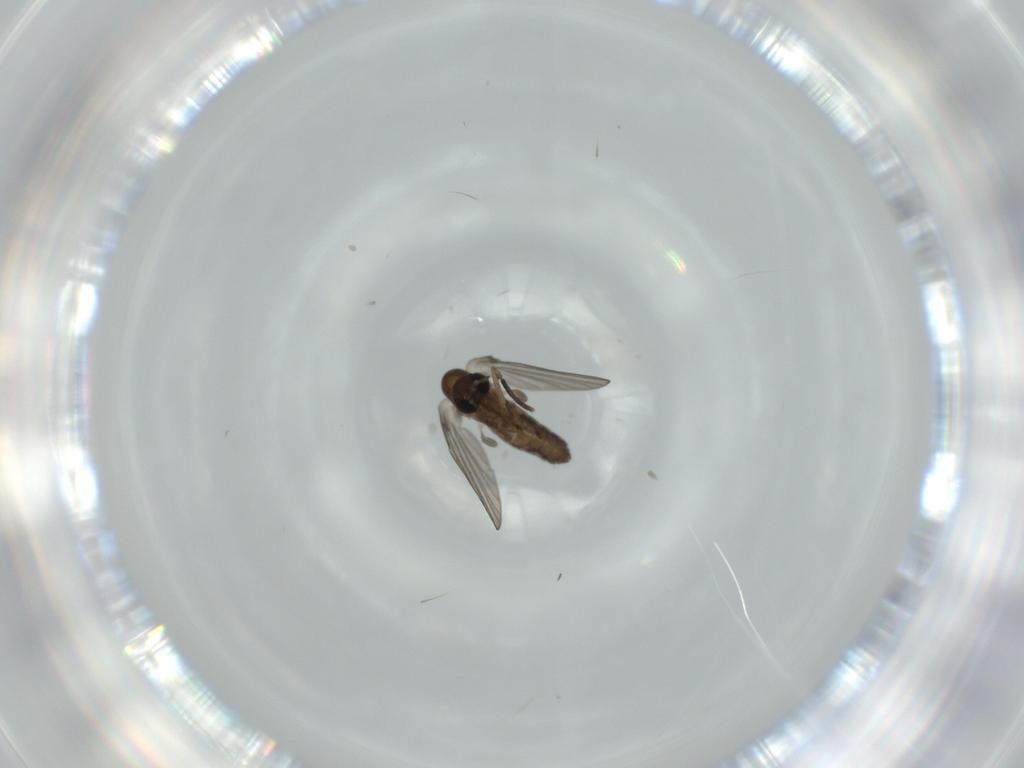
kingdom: Animalia
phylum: Arthropoda
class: Insecta
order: Diptera
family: Psychodidae
